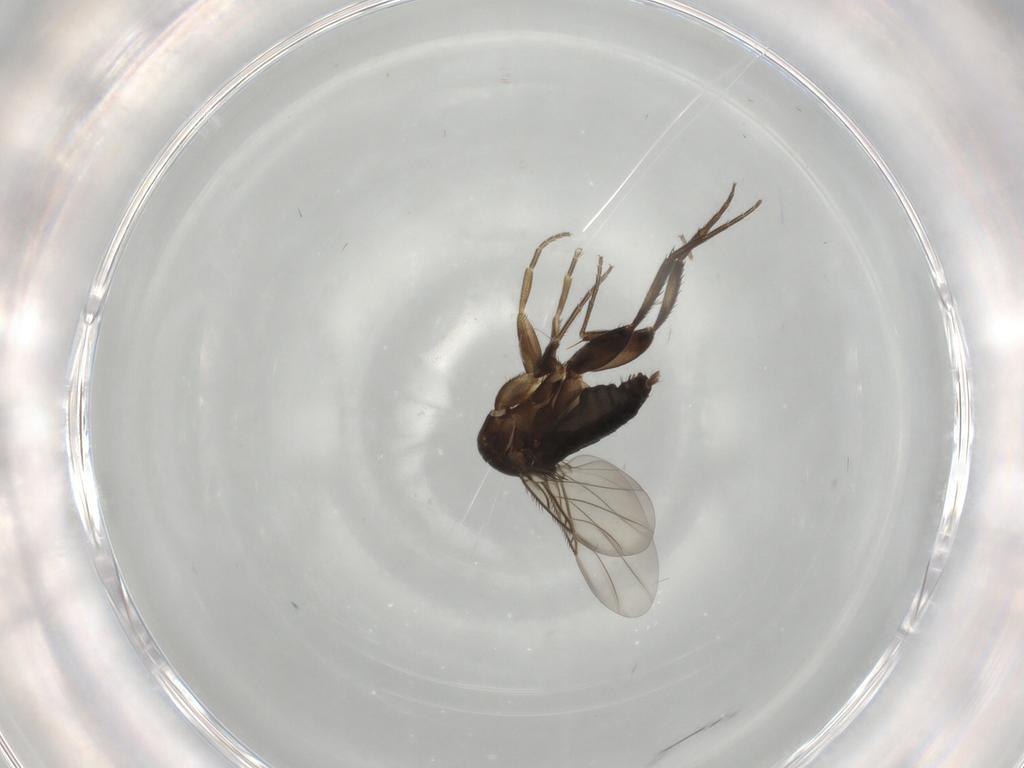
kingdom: Animalia
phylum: Arthropoda
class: Insecta
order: Diptera
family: Phoridae
